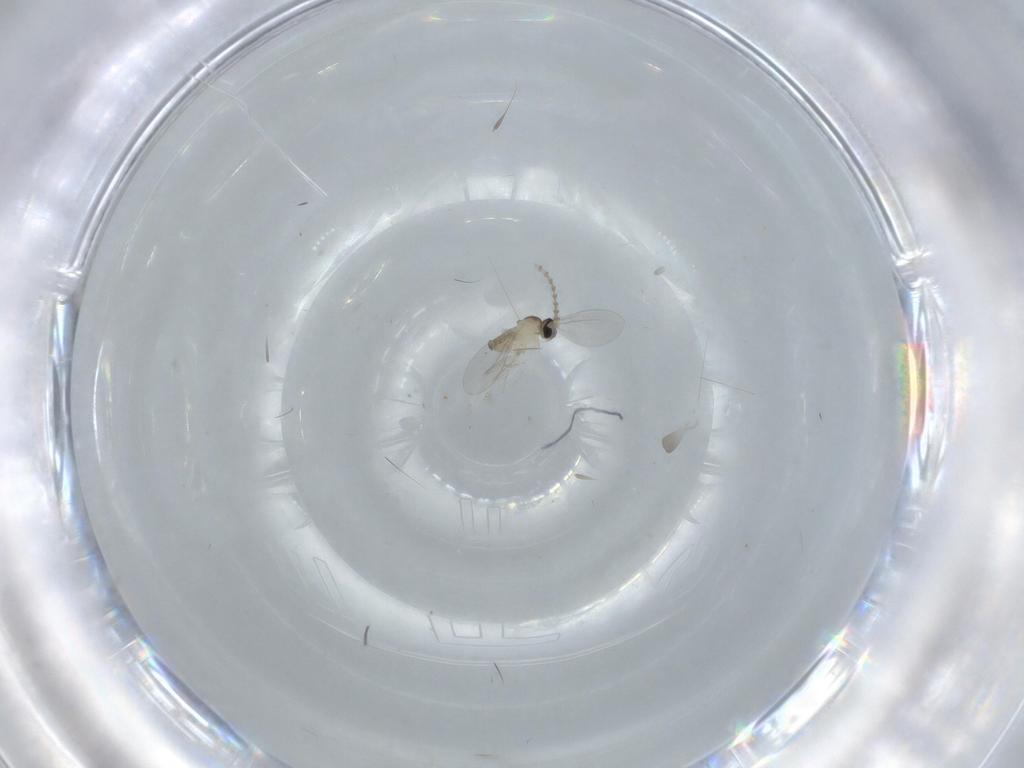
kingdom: Animalia
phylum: Arthropoda
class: Insecta
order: Diptera
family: Cecidomyiidae
